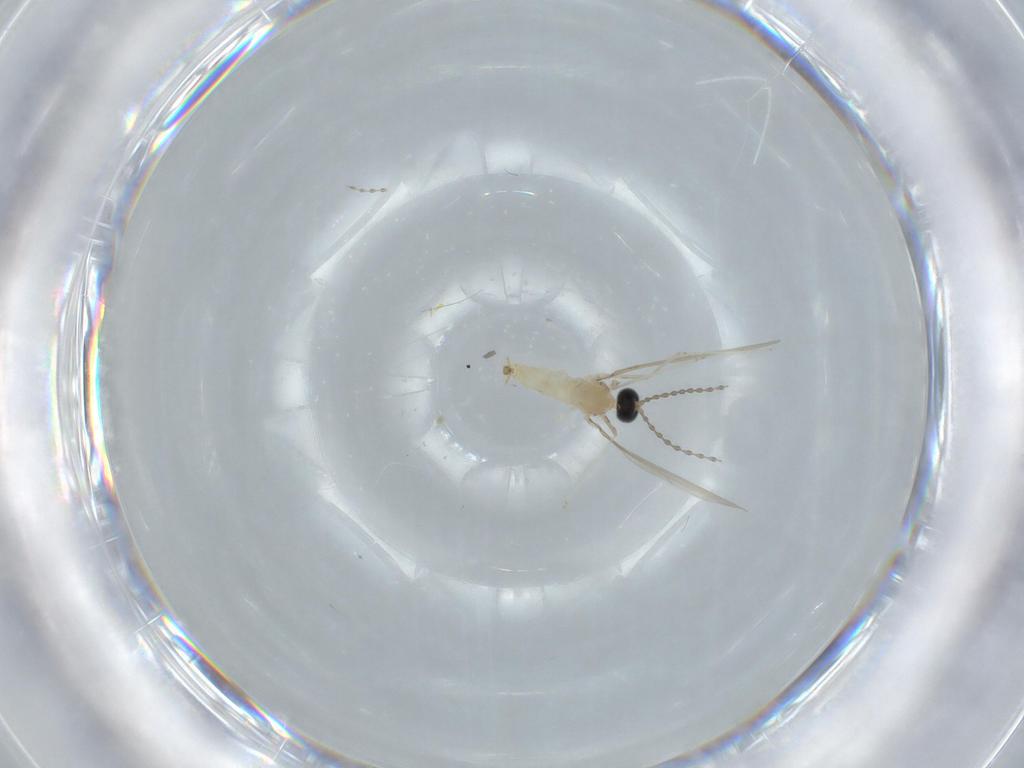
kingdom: Animalia
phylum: Arthropoda
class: Insecta
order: Diptera
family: Cecidomyiidae
